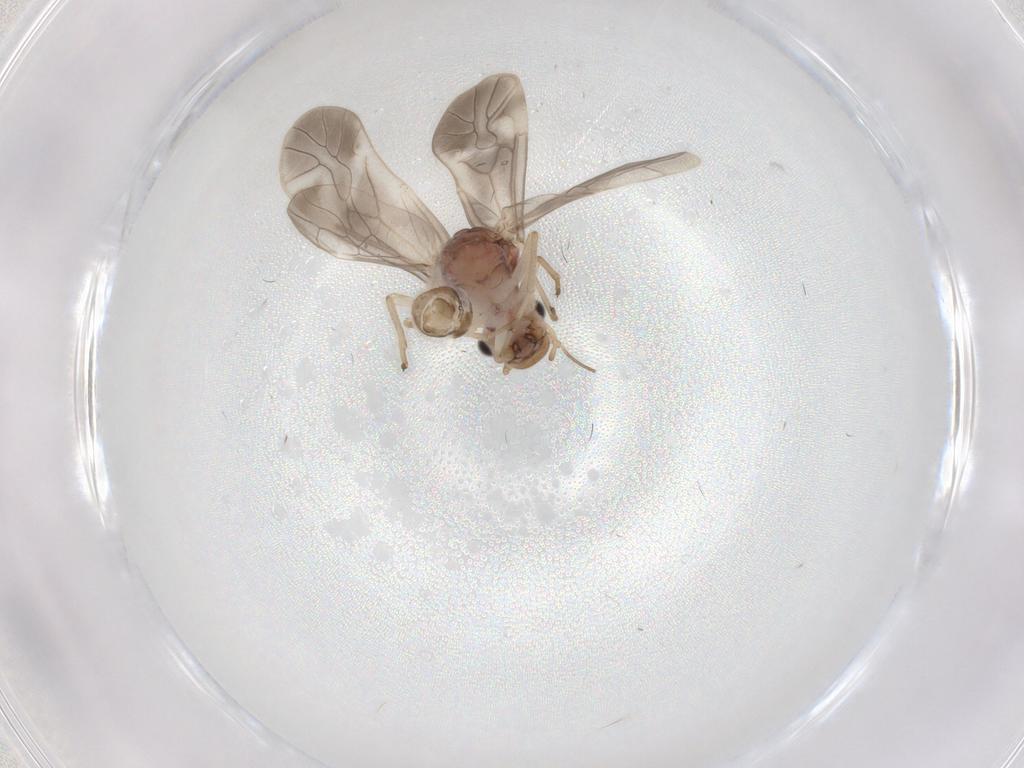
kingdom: Animalia
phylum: Arthropoda
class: Insecta
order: Psocodea
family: Caeciliusidae
